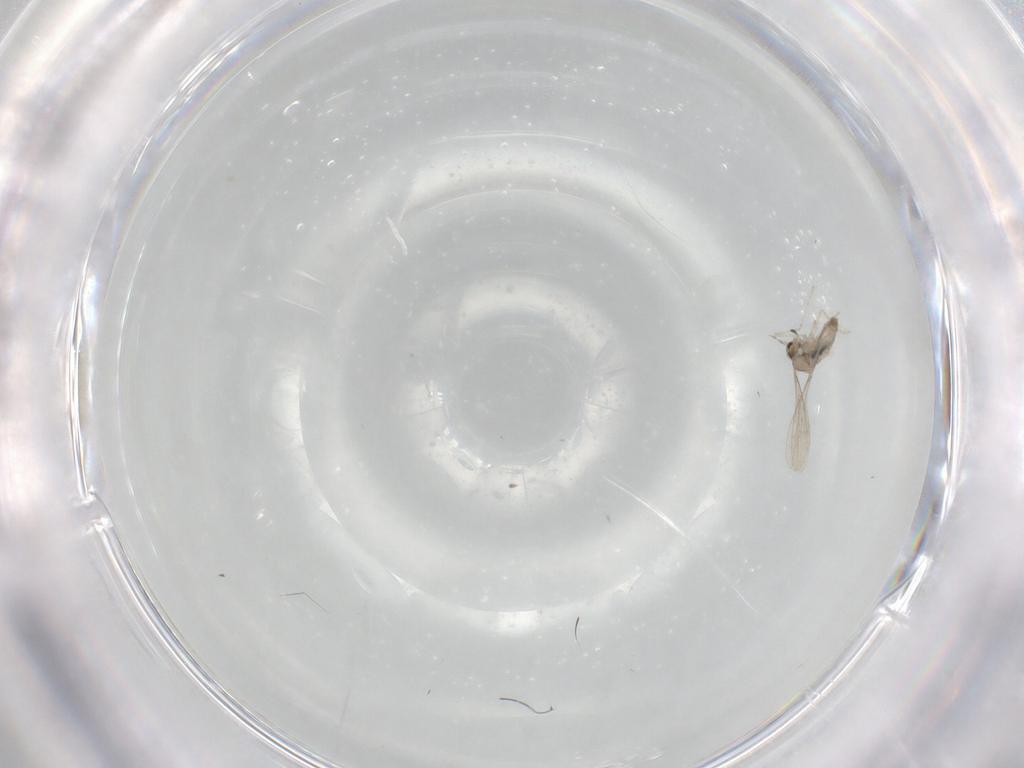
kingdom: Animalia
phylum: Arthropoda
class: Insecta
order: Diptera
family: Cecidomyiidae
